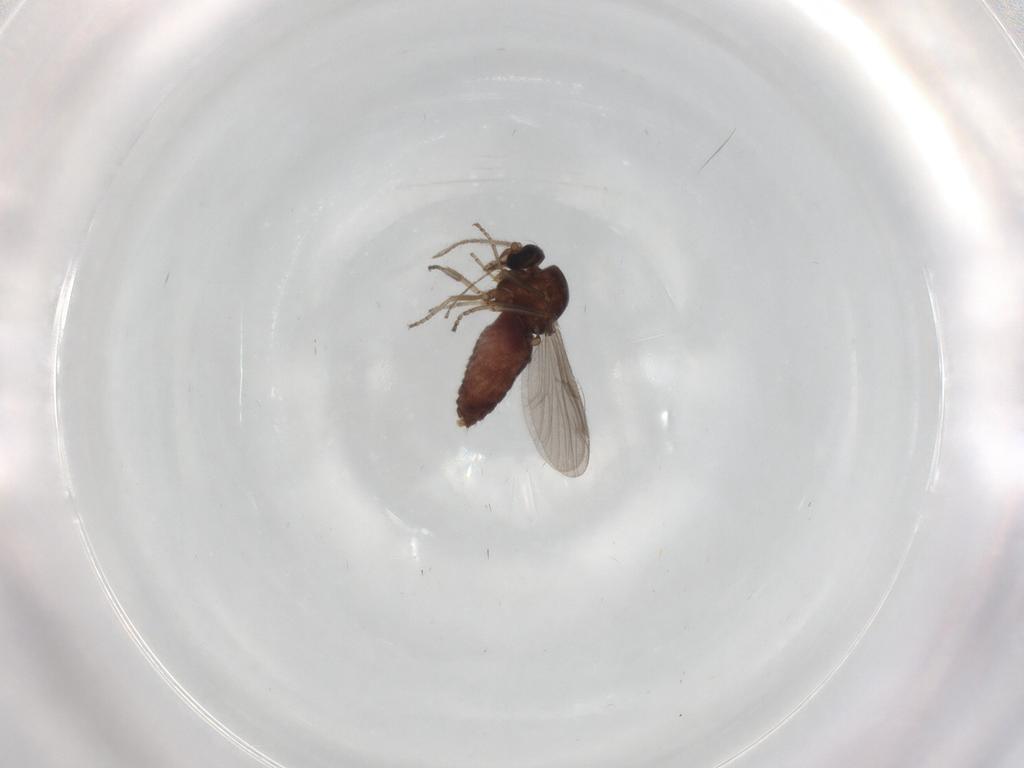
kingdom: Animalia
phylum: Arthropoda
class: Insecta
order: Diptera
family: Ceratopogonidae
